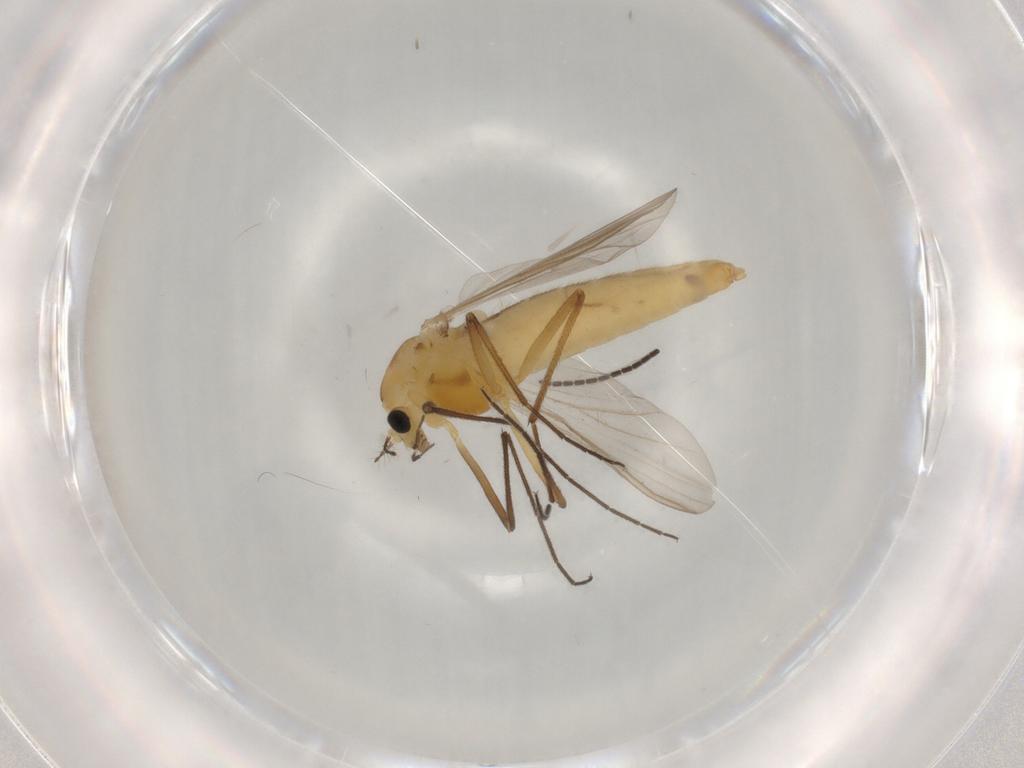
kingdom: Animalia
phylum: Arthropoda
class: Insecta
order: Diptera
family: Chironomidae
